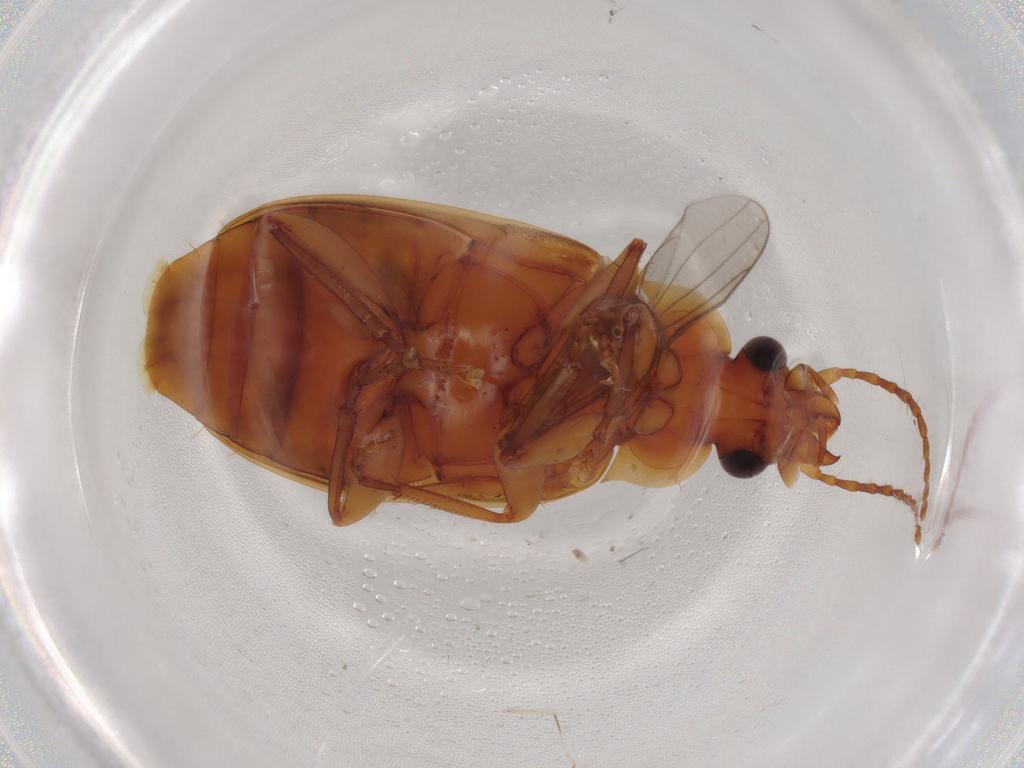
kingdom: Animalia
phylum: Arthropoda
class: Insecta
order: Coleoptera
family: Carabidae
